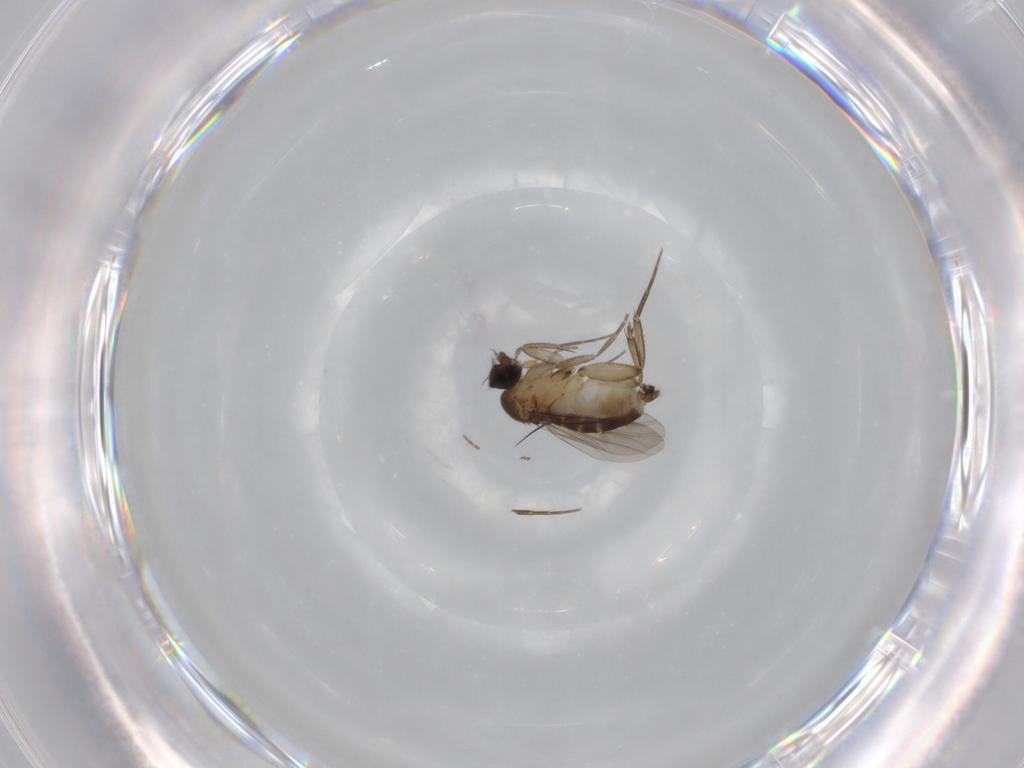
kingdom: Animalia
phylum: Arthropoda
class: Insecta
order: Diptera
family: Phoridae
